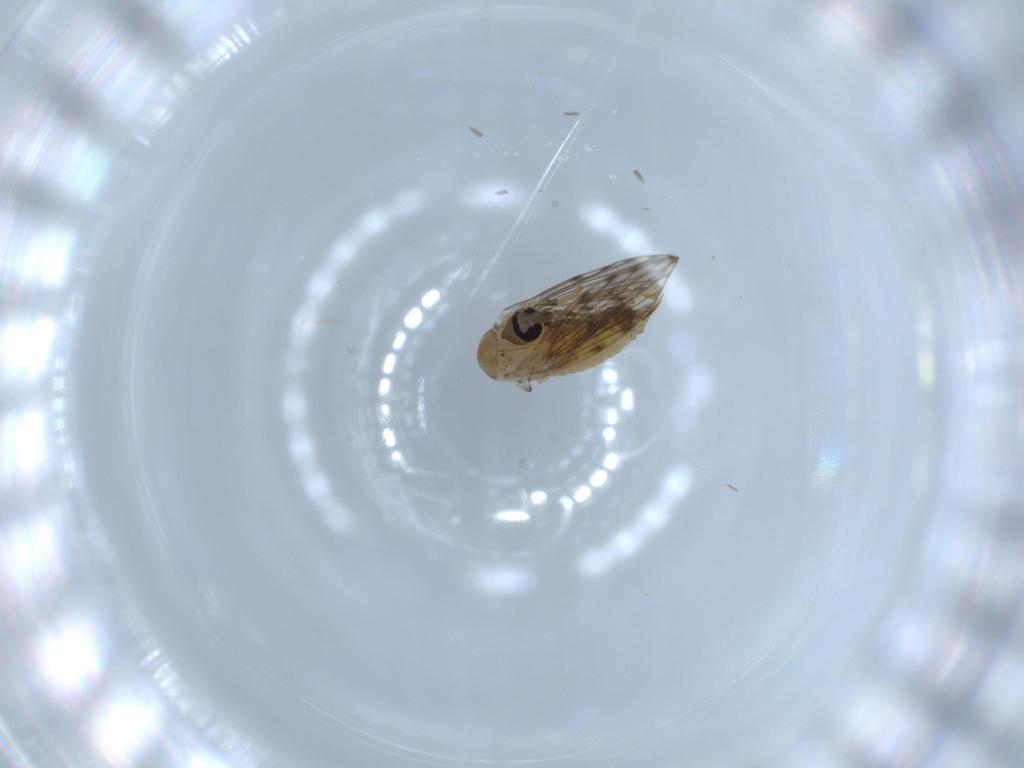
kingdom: Animalia
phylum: Arthropoda
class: Insecta
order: Diptera
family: Psychodidae
